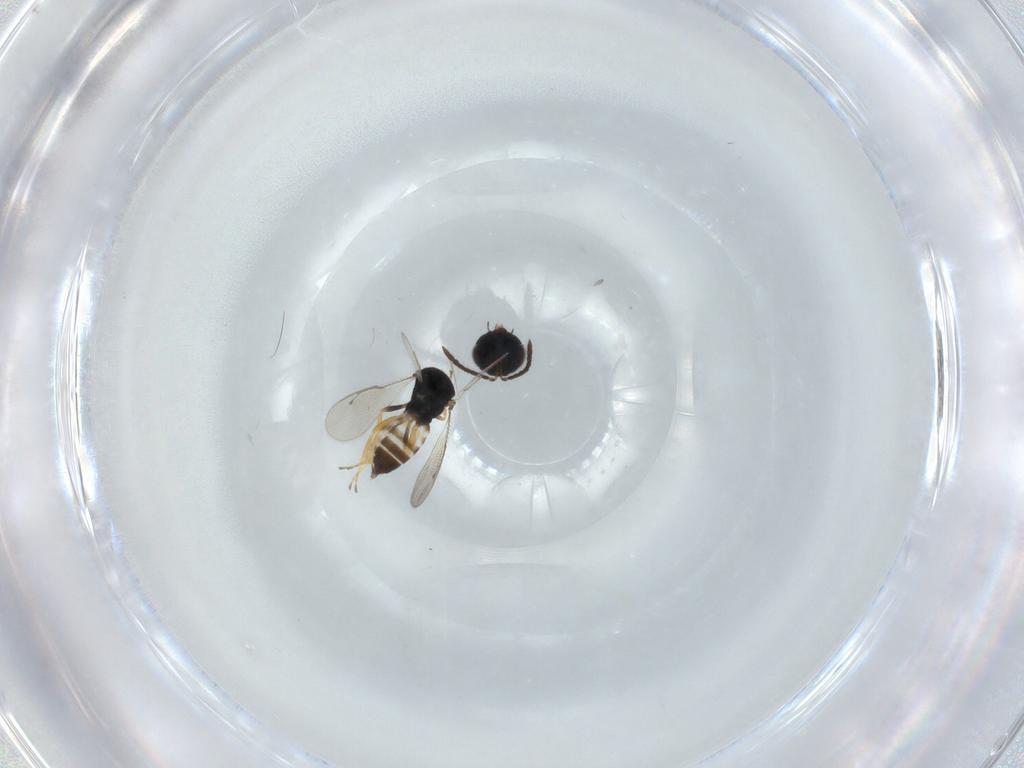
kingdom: Animalia
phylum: Arthropoda
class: Insecta
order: Hymenoptera
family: Pteromalidae
